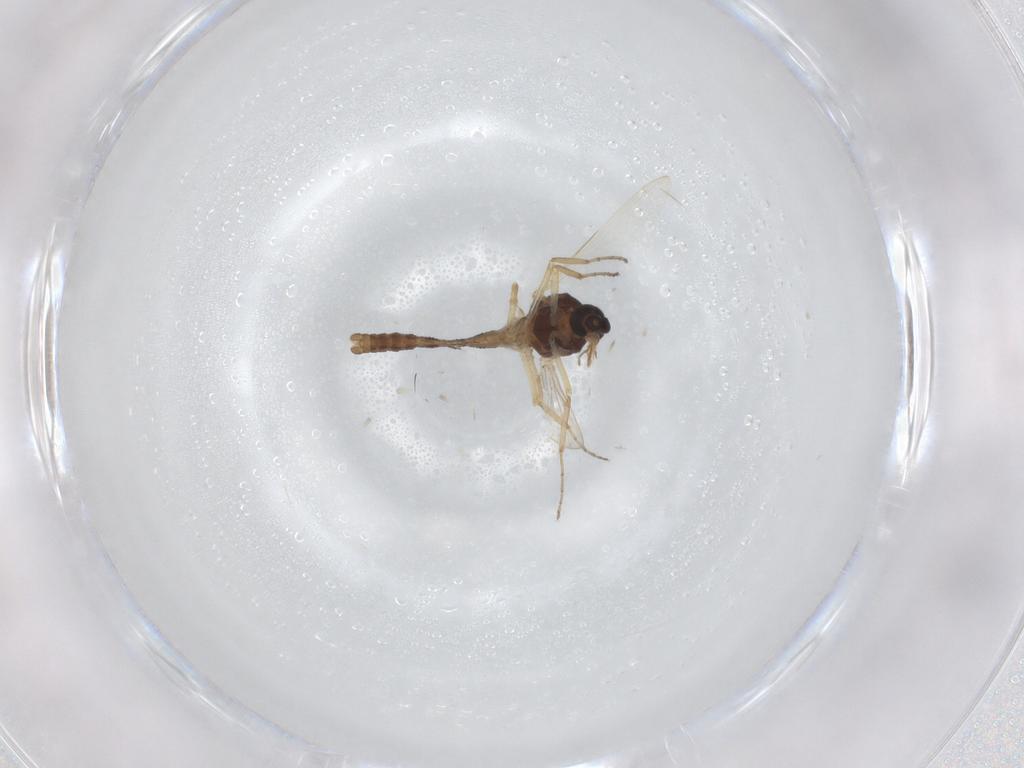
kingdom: Animalia
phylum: Arthropoda
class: Insecta
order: Diptera
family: Ceratopogonidae
